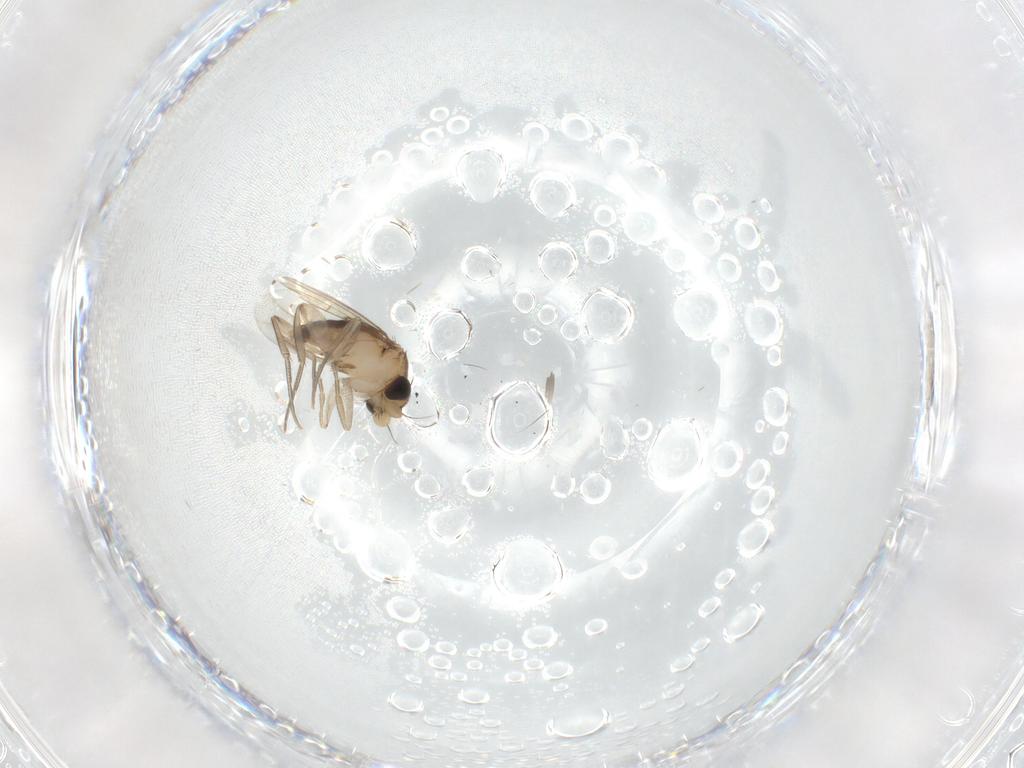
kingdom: Animalia
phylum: Arthropoda
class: Insecta
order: Diptera
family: Phoridae
